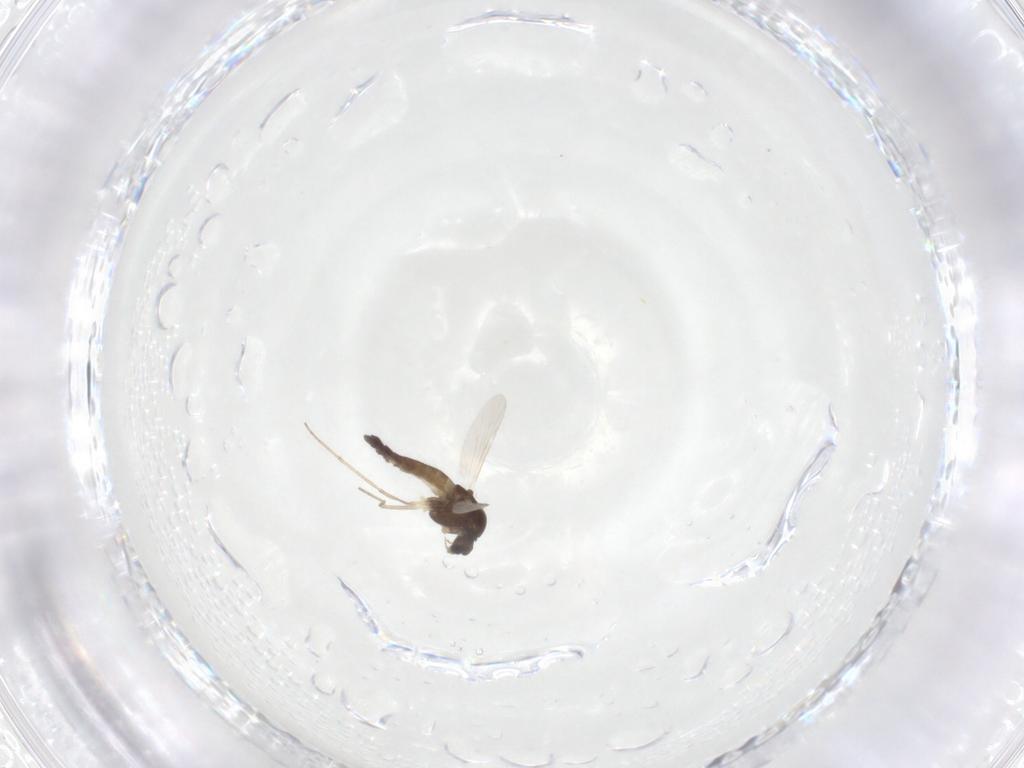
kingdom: Animalia
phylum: Arthropoda
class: Insecta
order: Diptera
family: Chironomidae
